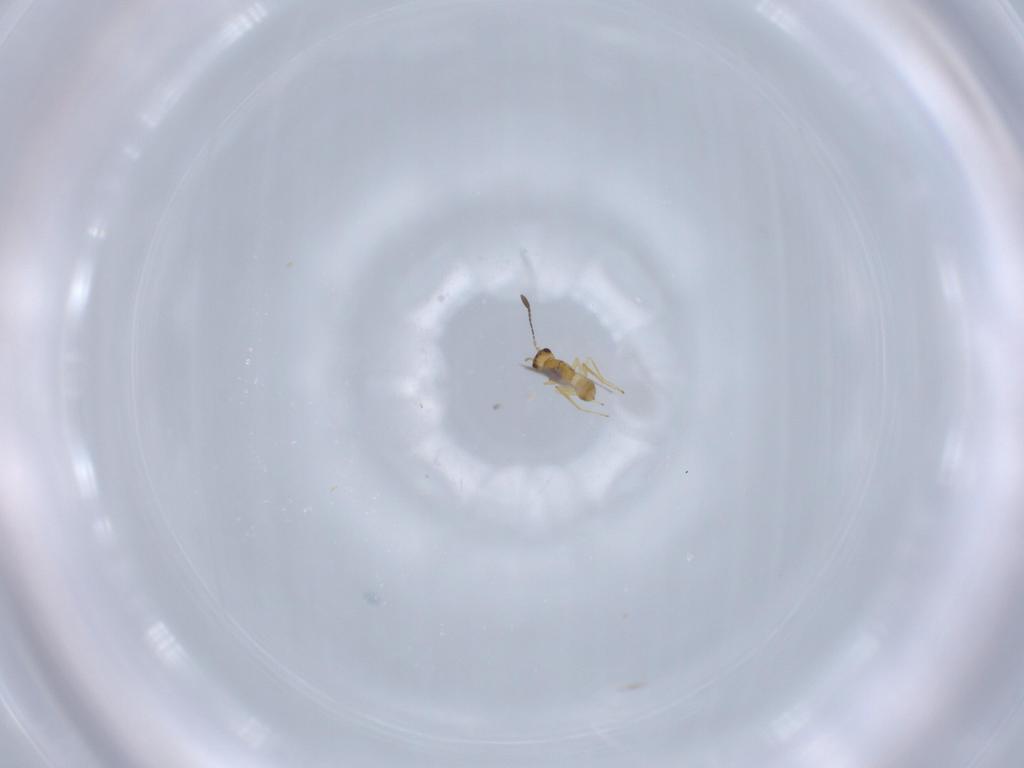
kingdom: Animalia
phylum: Arthropoda
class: Insecta
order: Hymenoptera
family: Mymaridae
